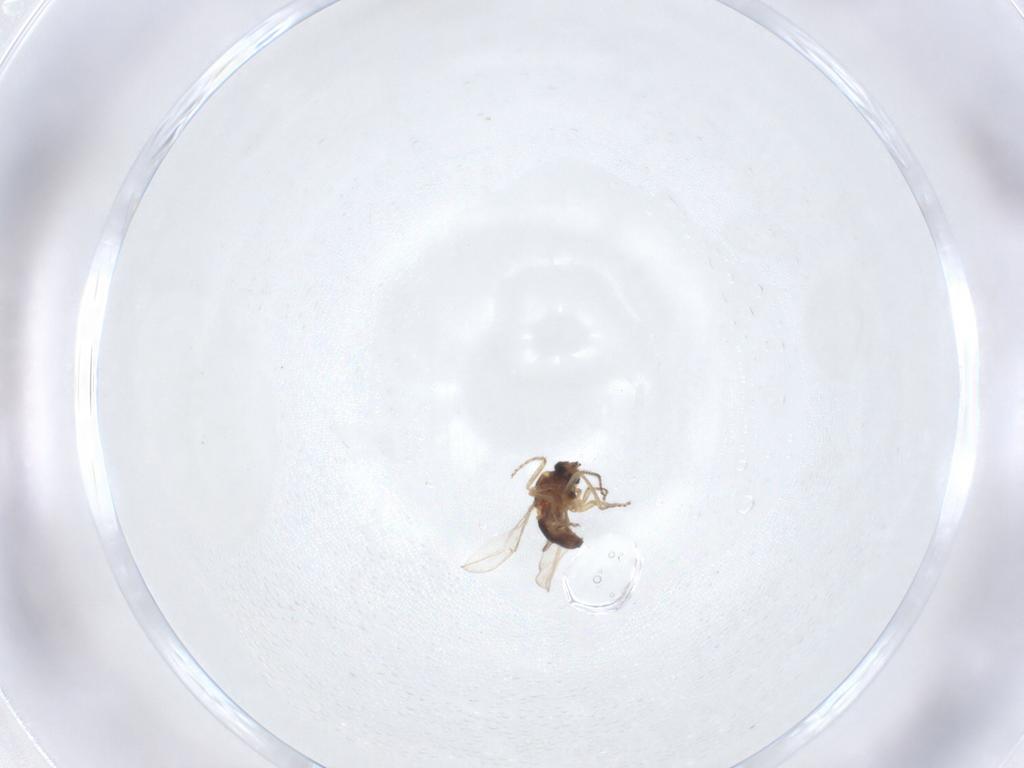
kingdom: Animalia
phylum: Arthropoda
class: Insecta
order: Diptera
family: Ceratopogonidae
